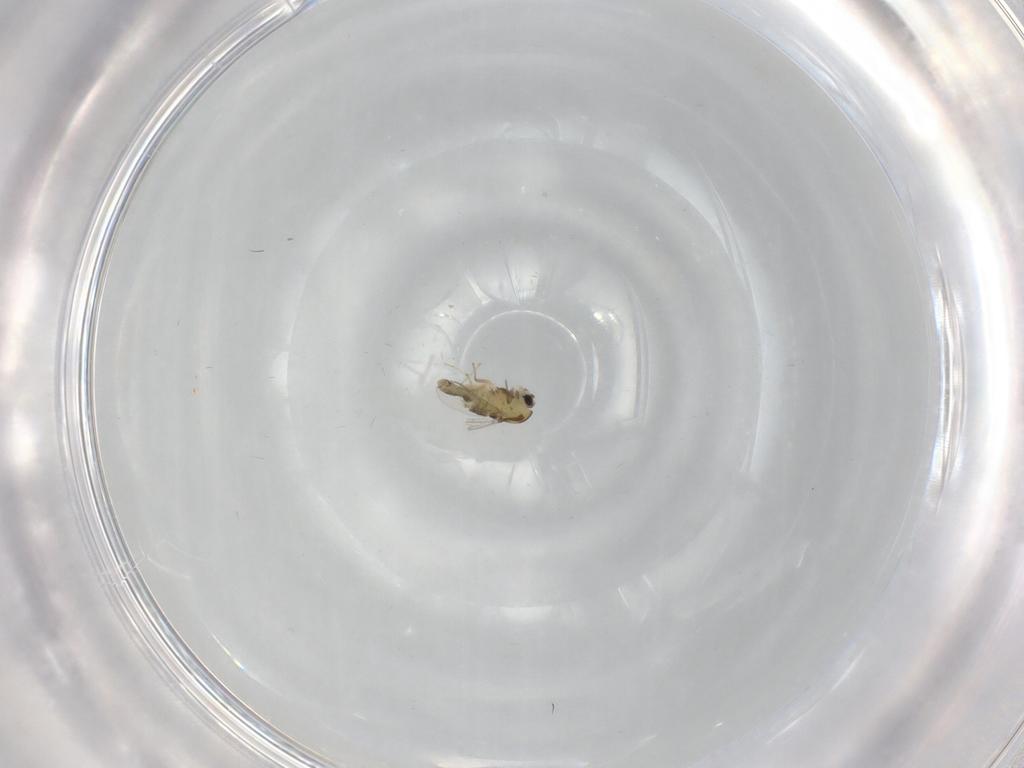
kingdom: Animalia
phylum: Arthropoda
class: Insecta
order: Diptera
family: Chironomidae
